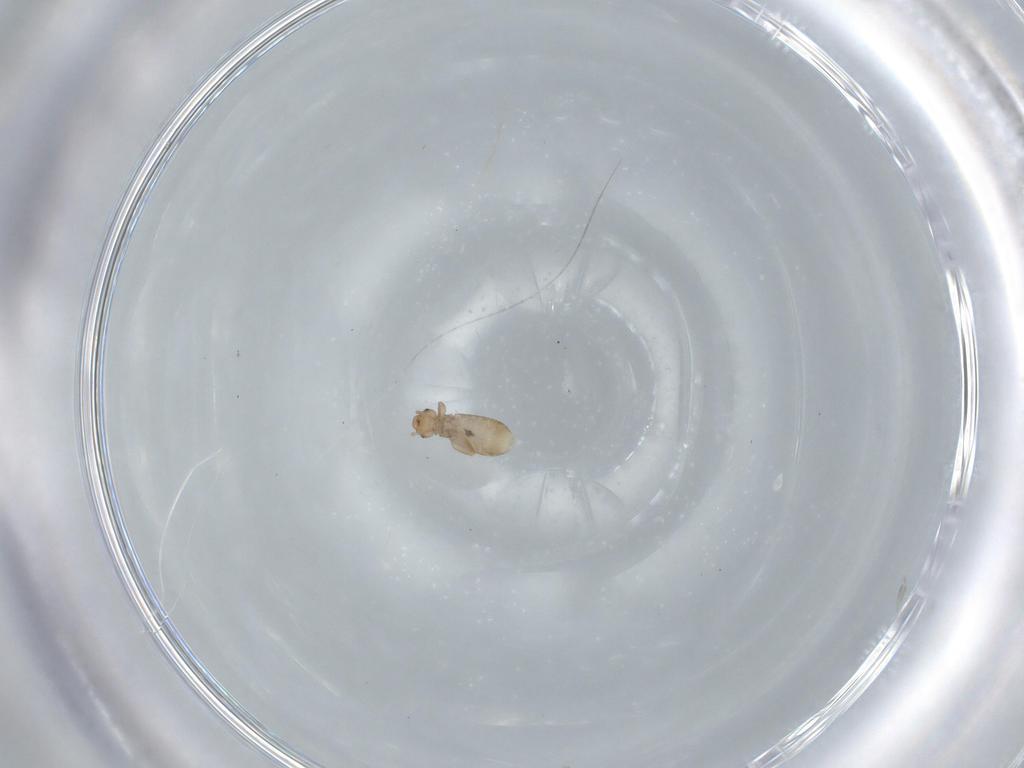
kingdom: Animalia
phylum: Arthropoda
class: Insecta
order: Psocodea
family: Liposcelididae
